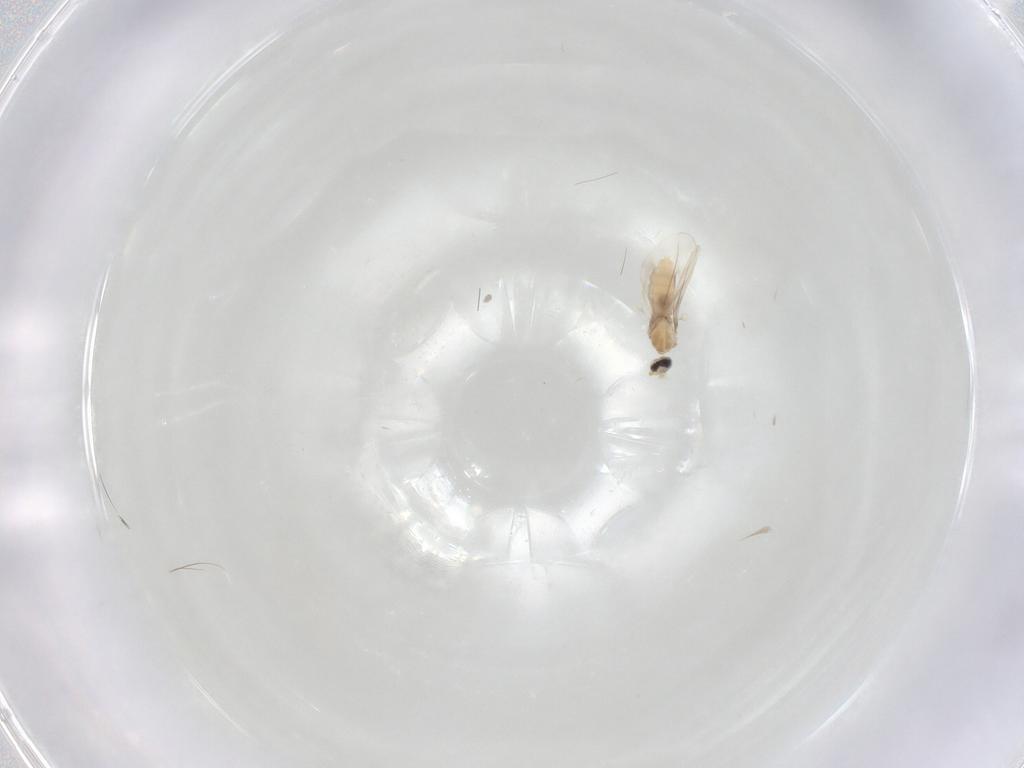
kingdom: Animalia
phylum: Arthropoda
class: Insecta
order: Diptera
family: Cecidomyiidae
